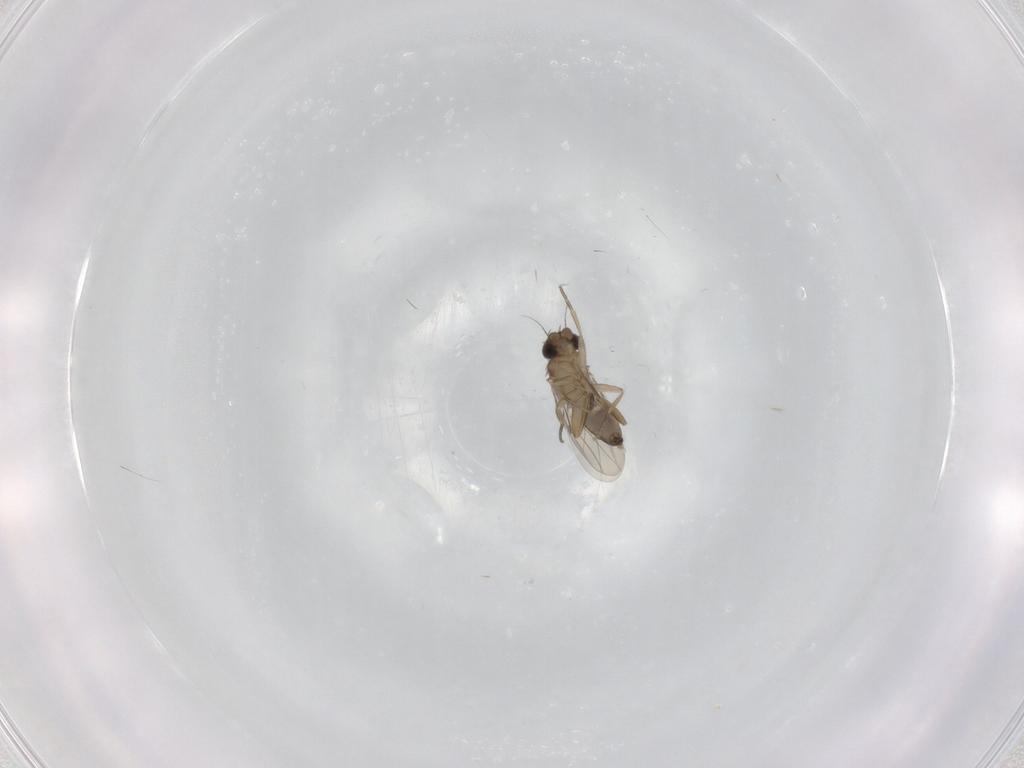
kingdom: Animalia
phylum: Arthropoda
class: Insecta
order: Diptera
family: Phoridae
